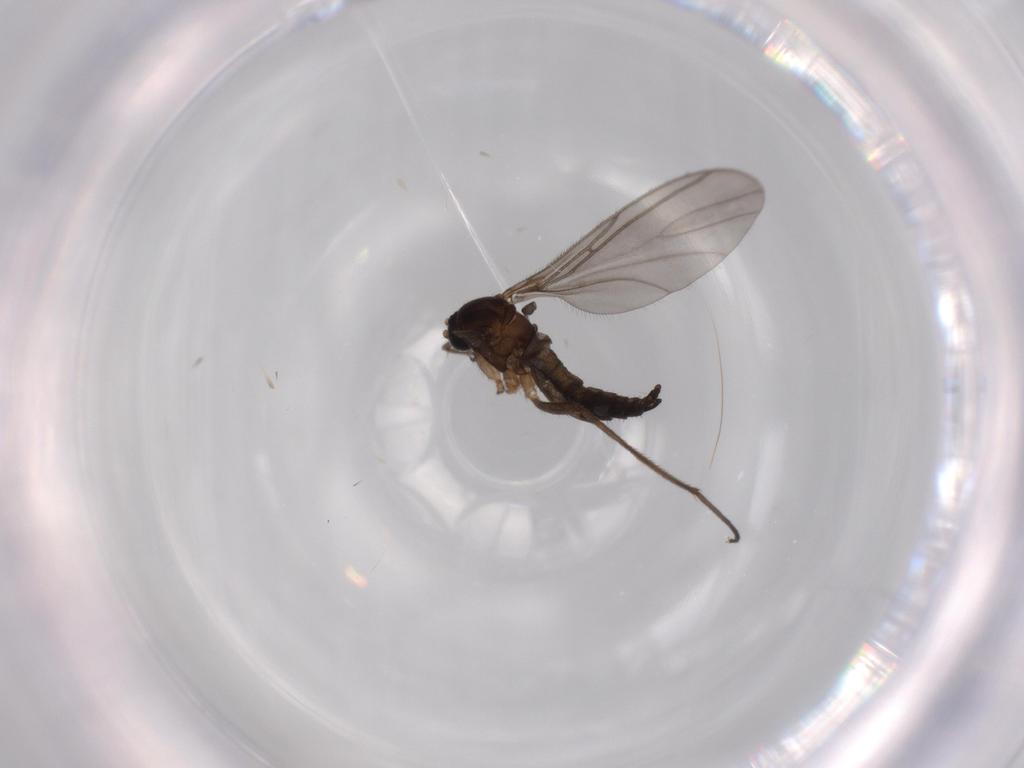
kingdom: Animalia
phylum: Arthropoda
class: Insecta
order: Diptera
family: Sciaridae
